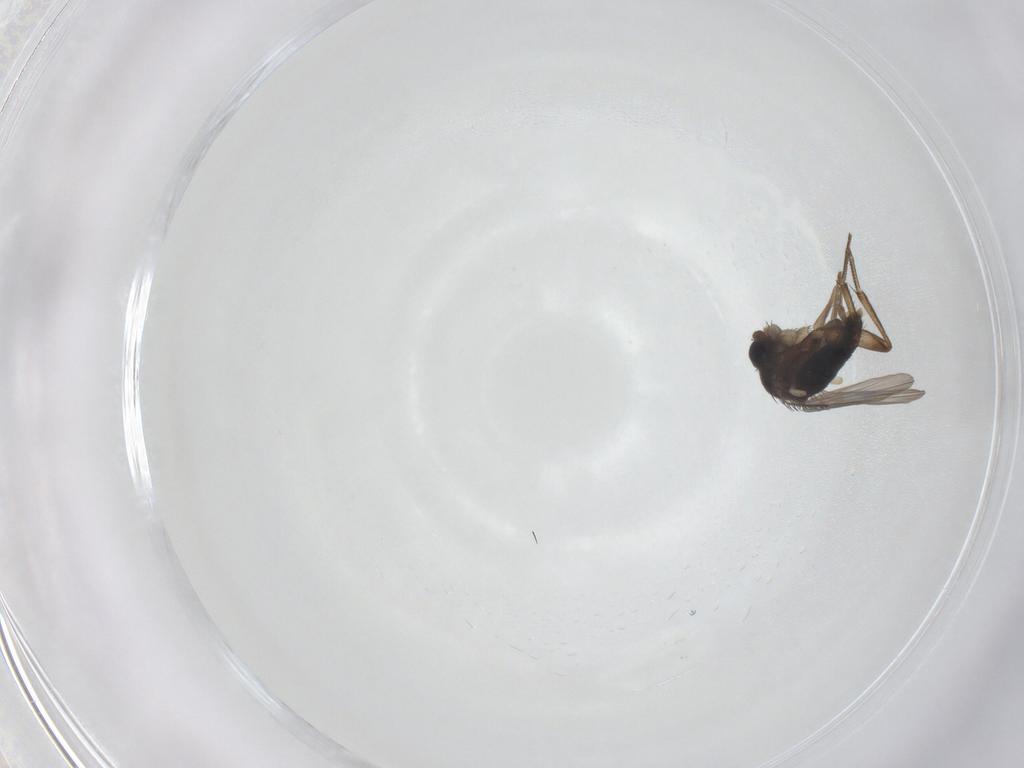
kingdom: Animalia
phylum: Arthropoda
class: Insecta
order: Diptera
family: Phoridae
